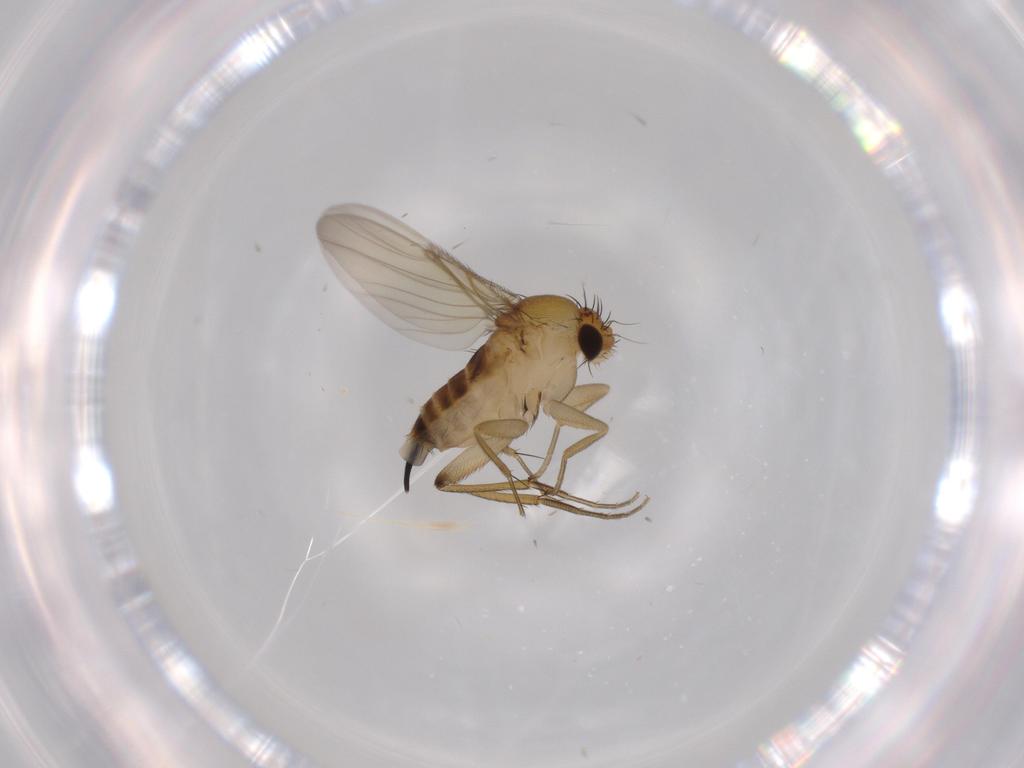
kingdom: Animalia
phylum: Arthropoda
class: Insecta
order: Diptera
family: Phoridae
